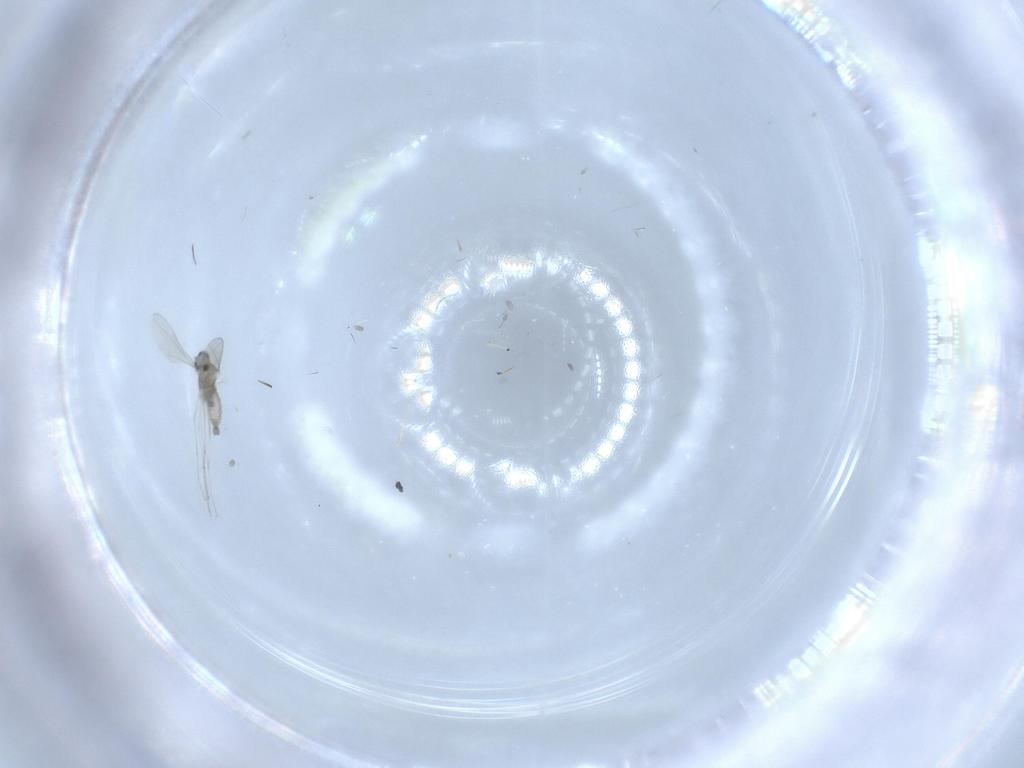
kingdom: Animalia
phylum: Arthropoda
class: Insecta
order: Diptera
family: Cecidomyiidae
